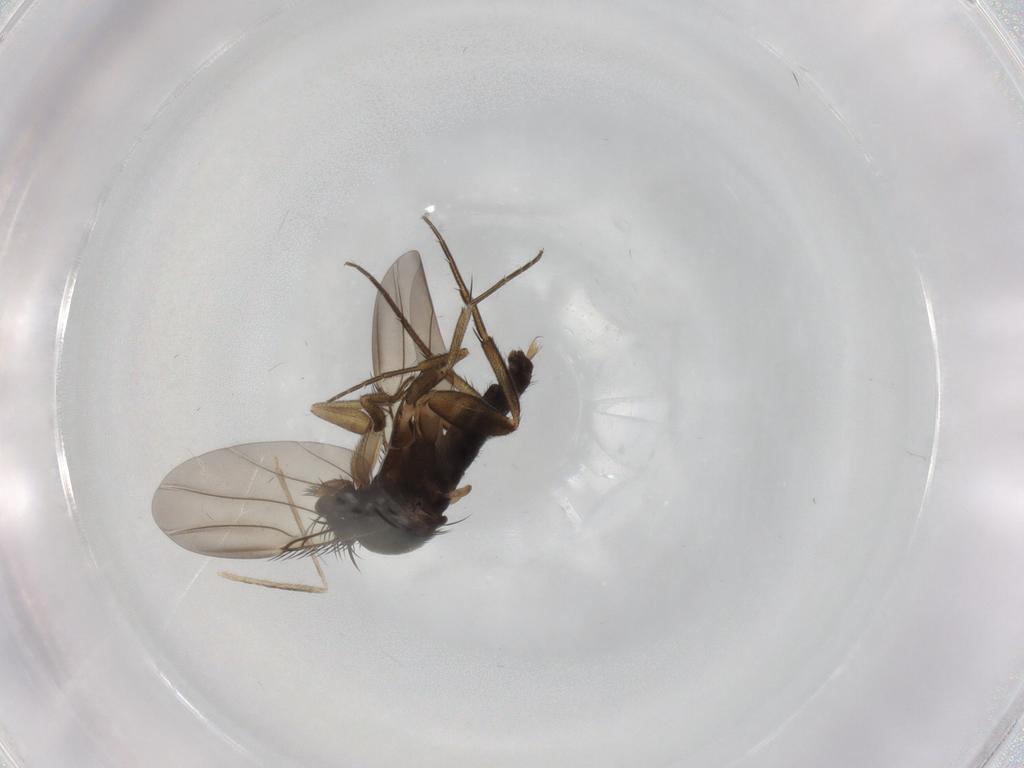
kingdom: Animalia
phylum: Arthropoda
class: Insecta
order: Diptera
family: Phoridae
